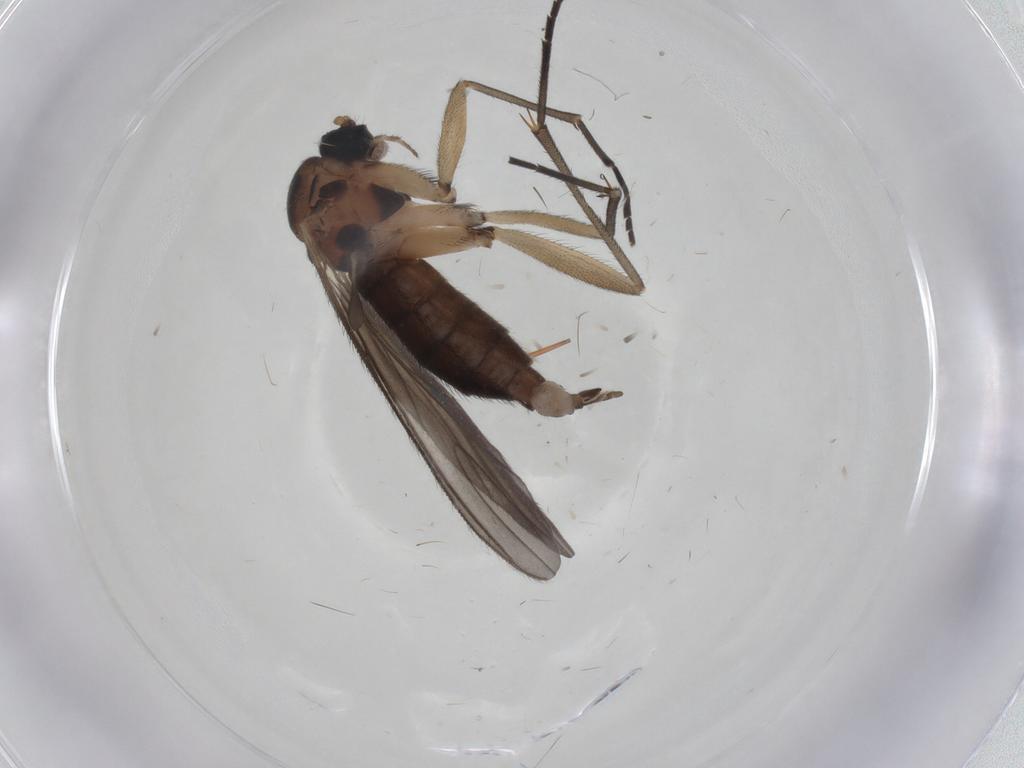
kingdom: Animalia
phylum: Arthropoda
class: Insecta
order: Diptera
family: Sciaridae
